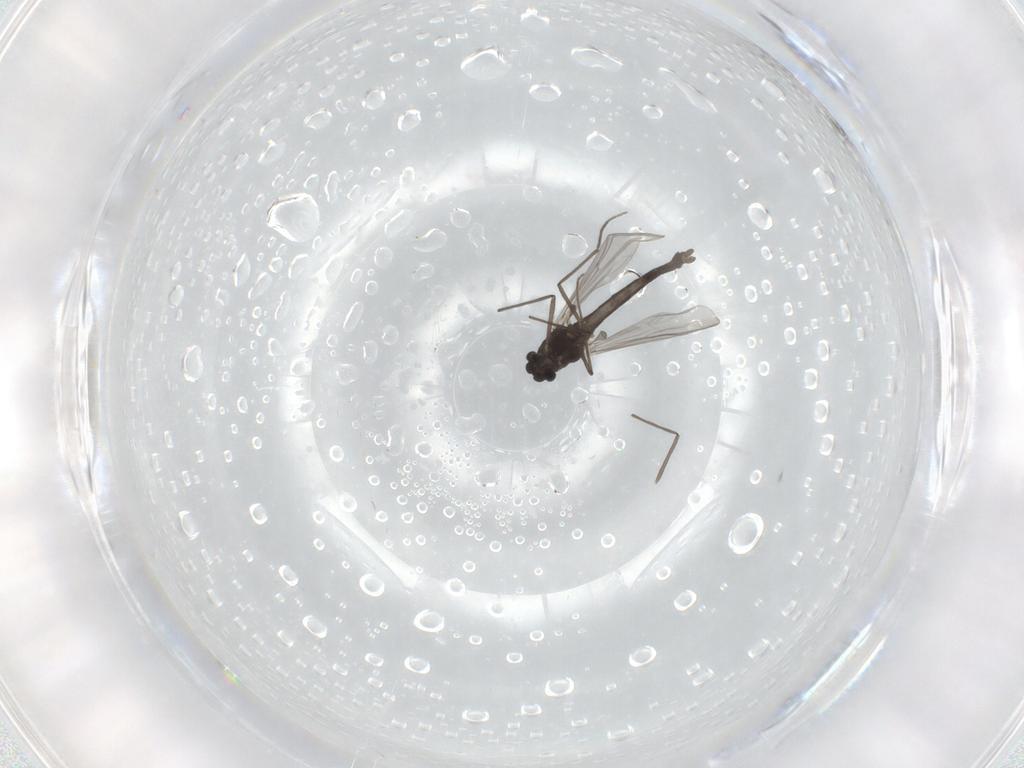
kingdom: Animalia
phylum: Arthropoda
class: Insecta
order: Diptera
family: Chironomidae
